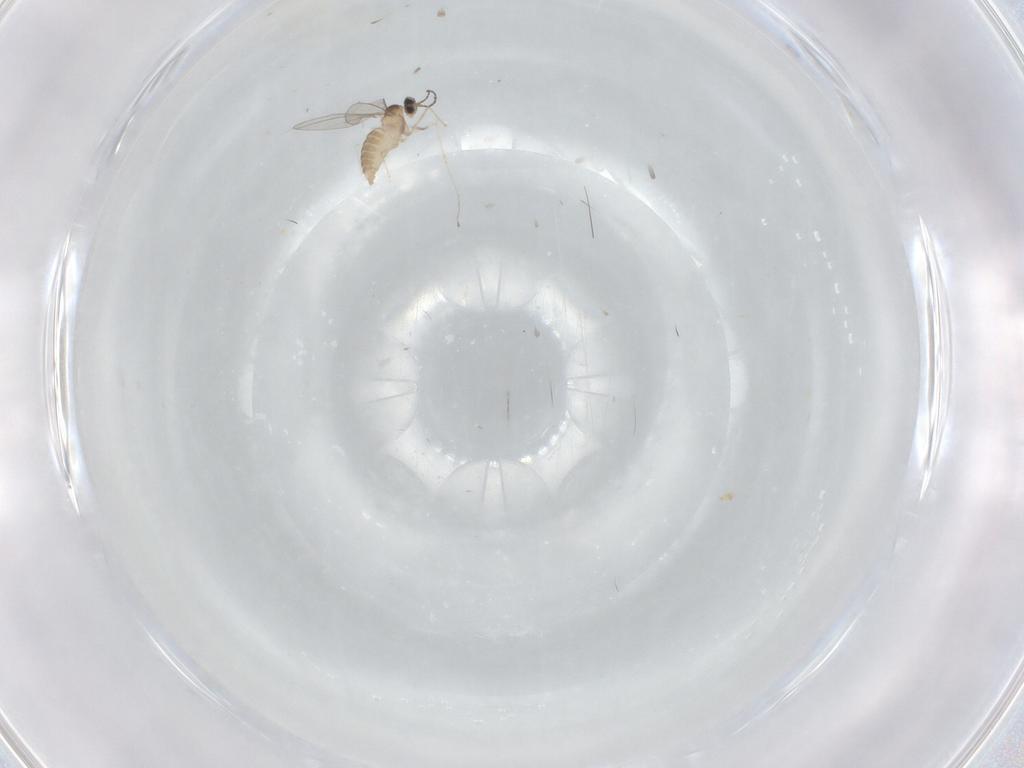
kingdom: Animalia
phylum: Arthropoda
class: Insecta
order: Diptera
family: Cecidomyiidae
